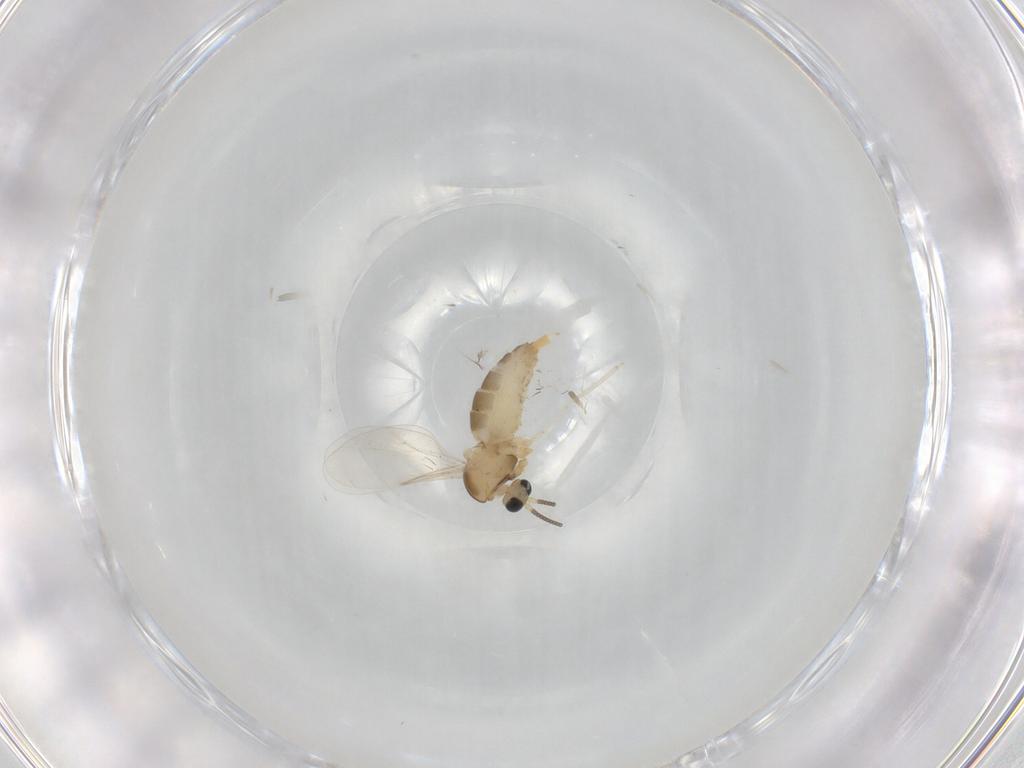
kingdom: Animalia
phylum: Arthropoda
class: Insecta
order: Diptera
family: Cecidomyiidae
